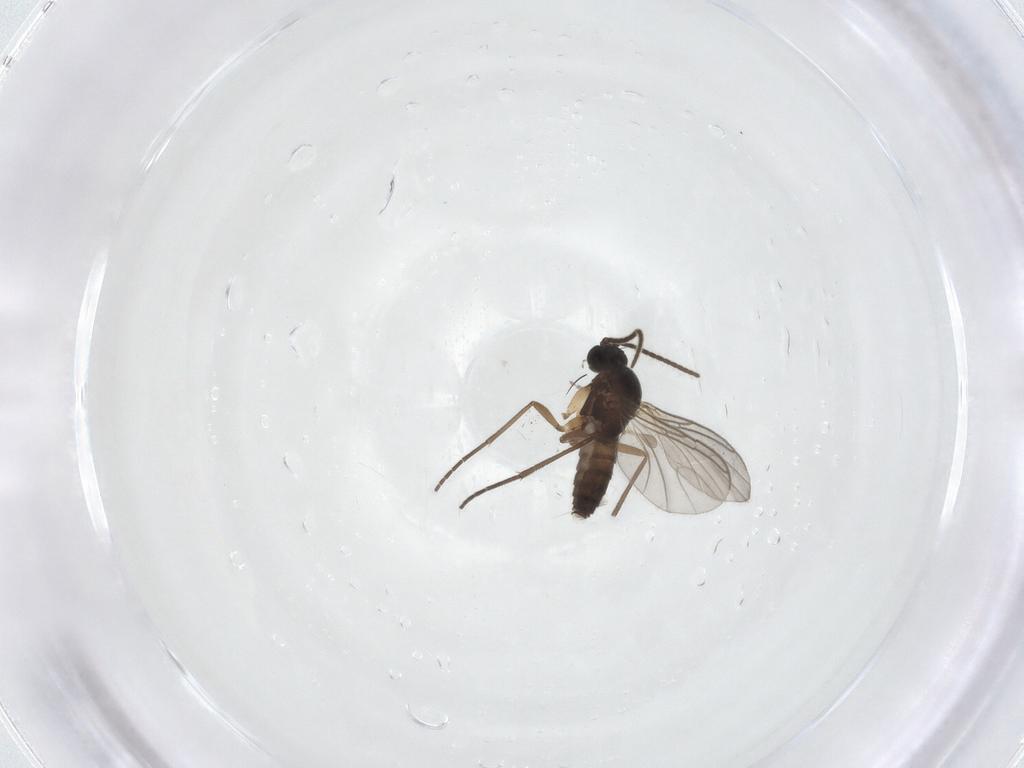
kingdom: Animalia
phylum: Arthropoda
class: Insecta
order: Diptera
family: Sciaridae
